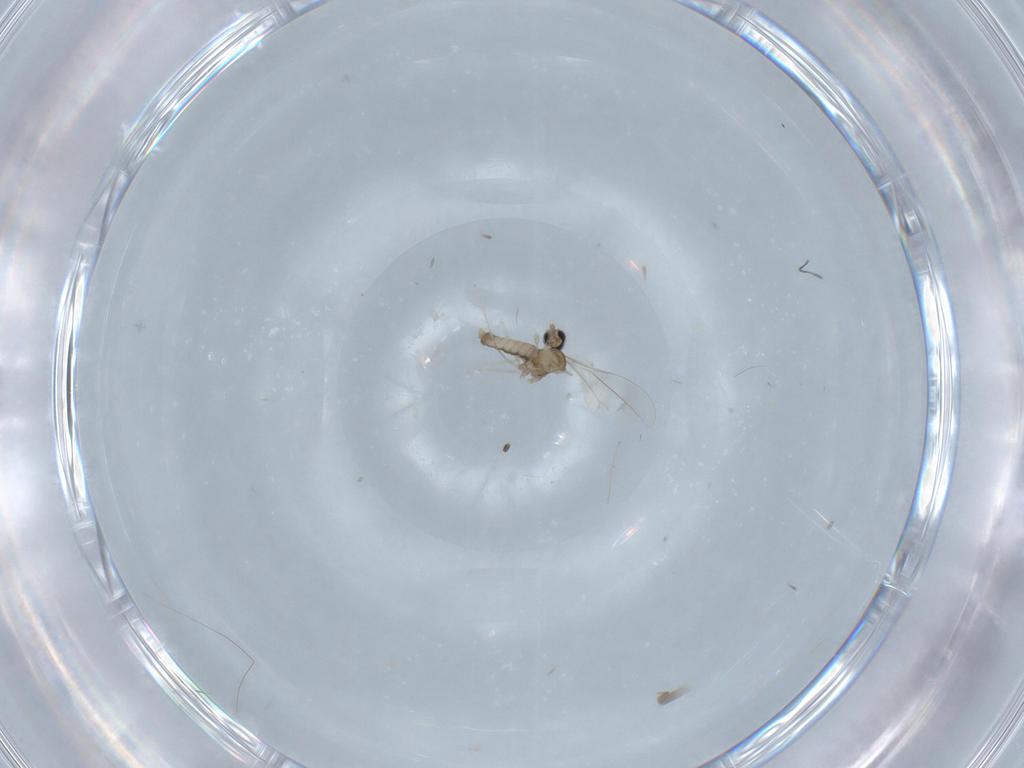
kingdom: Animalia
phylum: Arthropoda
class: Insecta
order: Diptera
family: Cecidomyiidae
